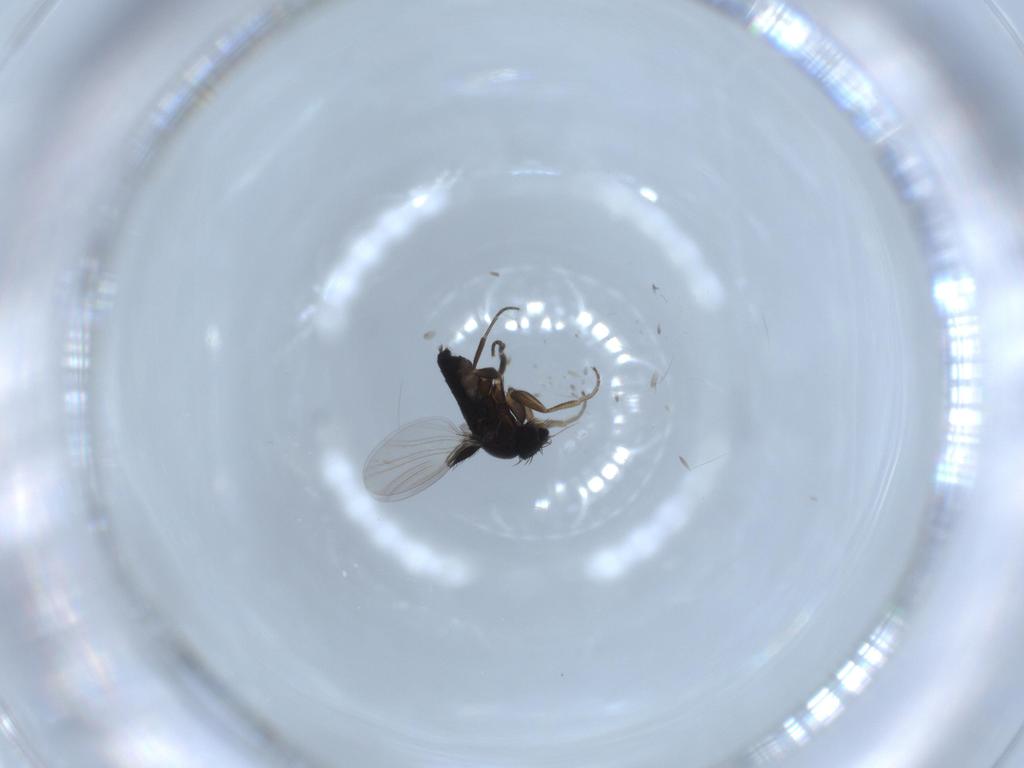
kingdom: Animalia
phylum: Arthropoda
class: Insecta
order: Diptera
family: Phoridae
